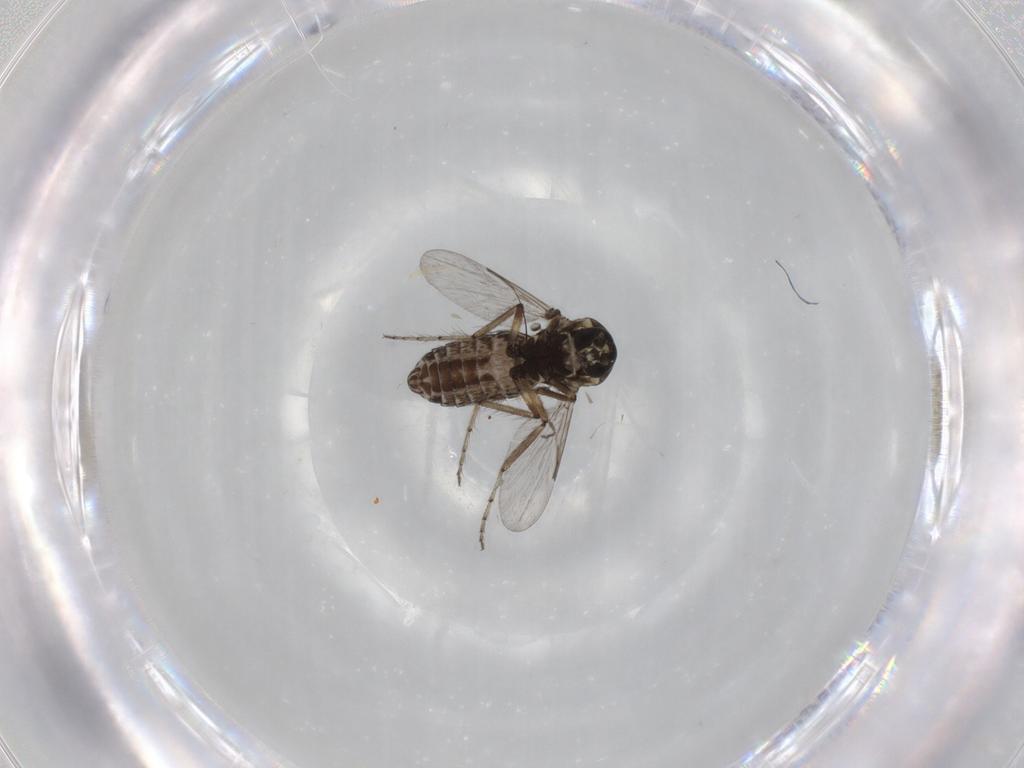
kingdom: Animalia
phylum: Arthropoda
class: Insecta
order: Diptera
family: Ceratopogonidae
